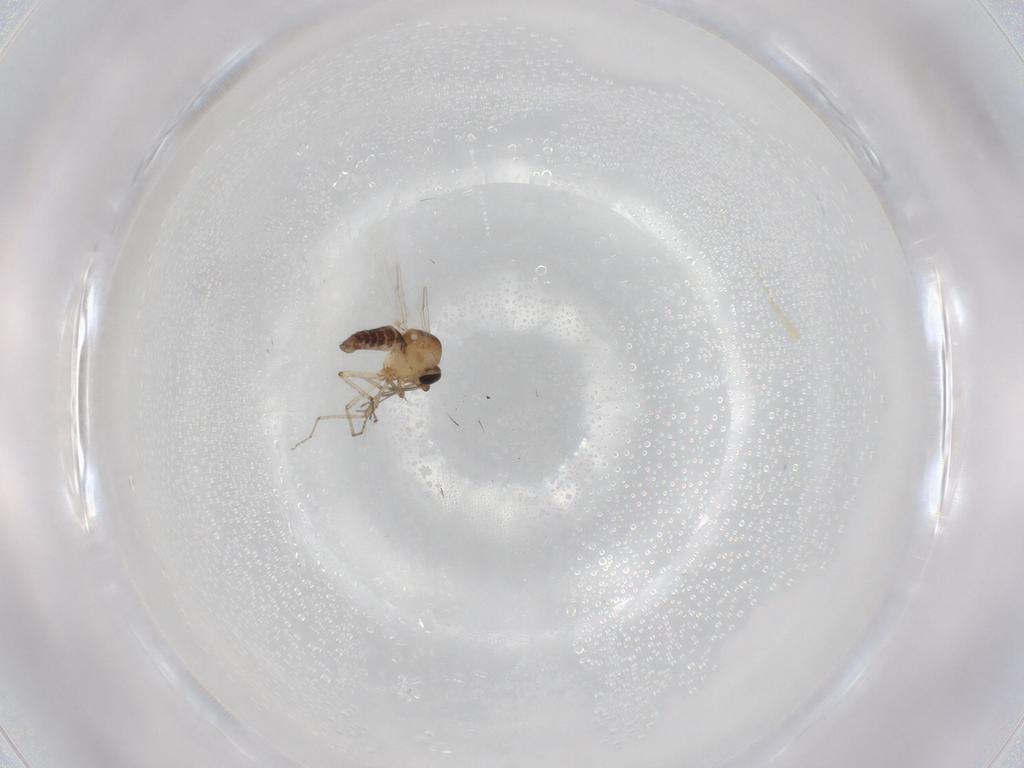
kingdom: Animalia
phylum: Arthropoda
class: Insecta
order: Diptera
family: Ceratopogonidae
